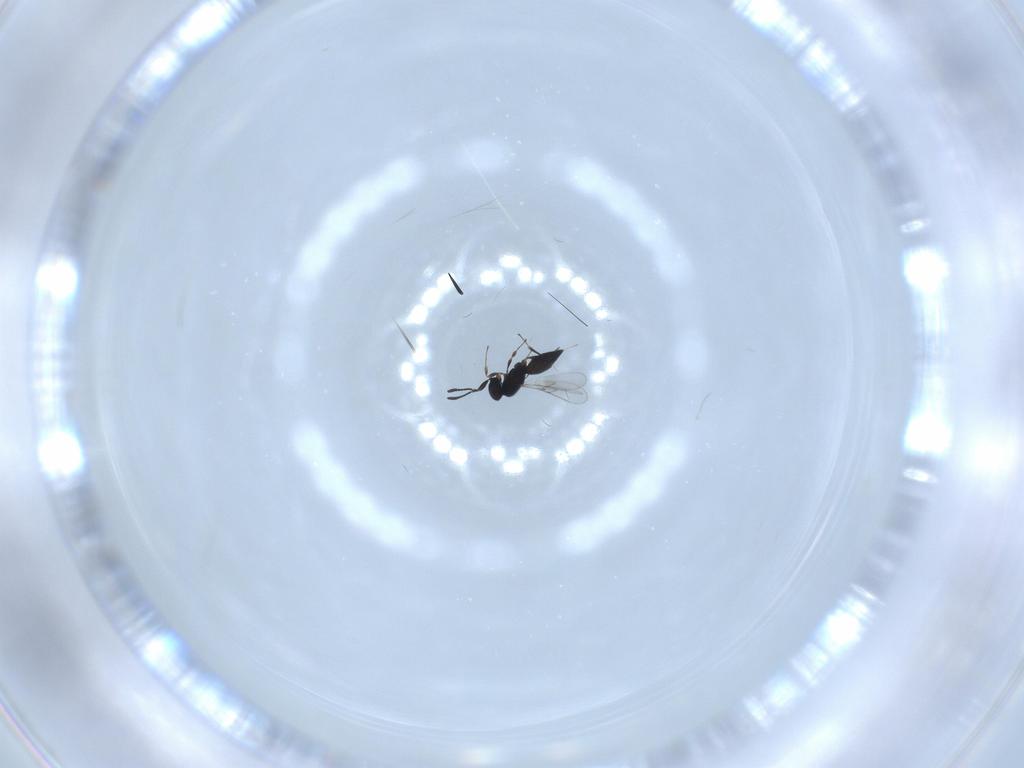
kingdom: Animalia
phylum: Arthropoda
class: Insecta
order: Hymenoptera
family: Scelionidae
